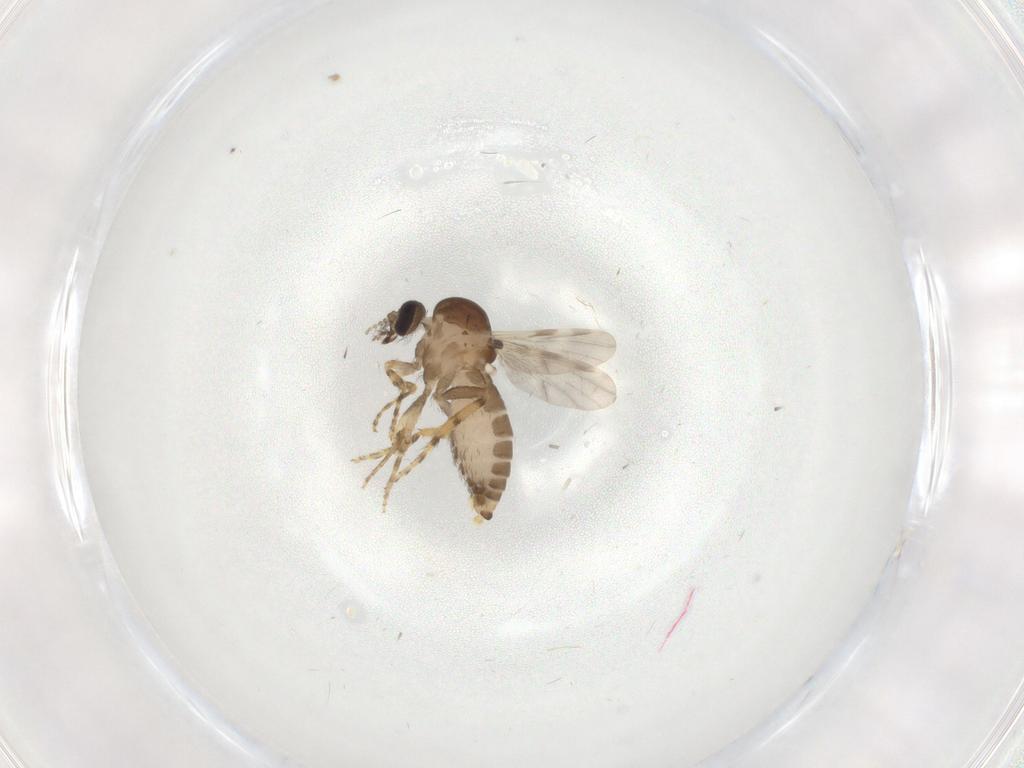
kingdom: Animalia
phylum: Arthropoda
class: Insecta
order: Diptera
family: Ceratopogonidae
